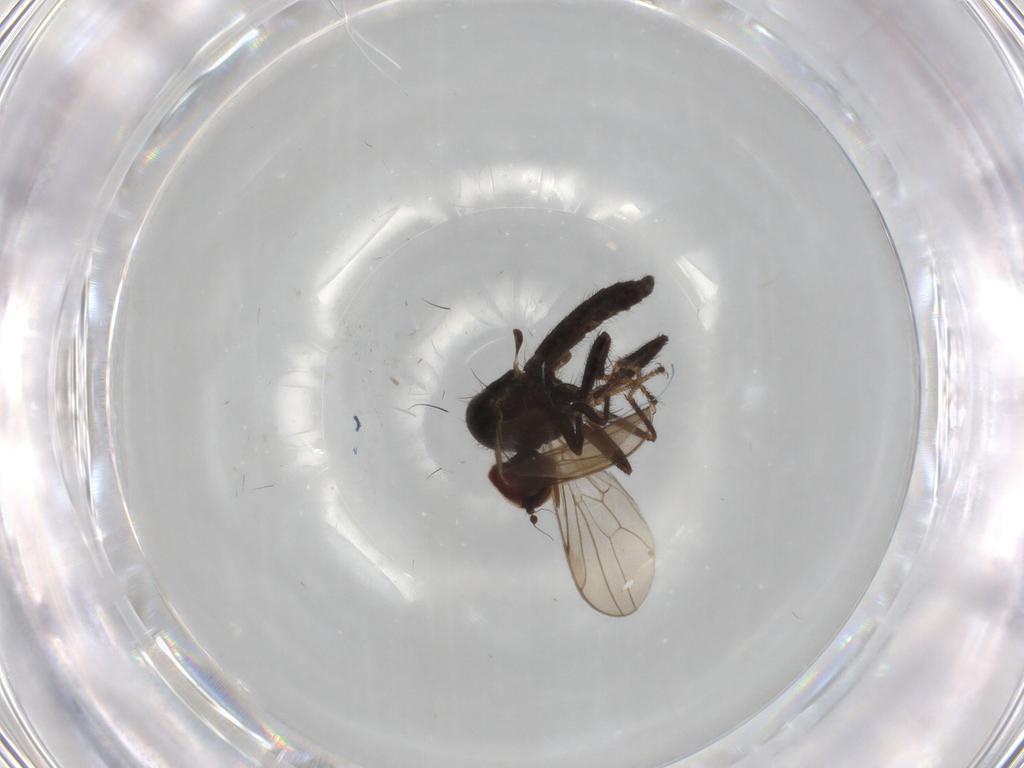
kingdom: Animalia
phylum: Arthropoda
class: Insecta
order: Diptera
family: Hybotidae
